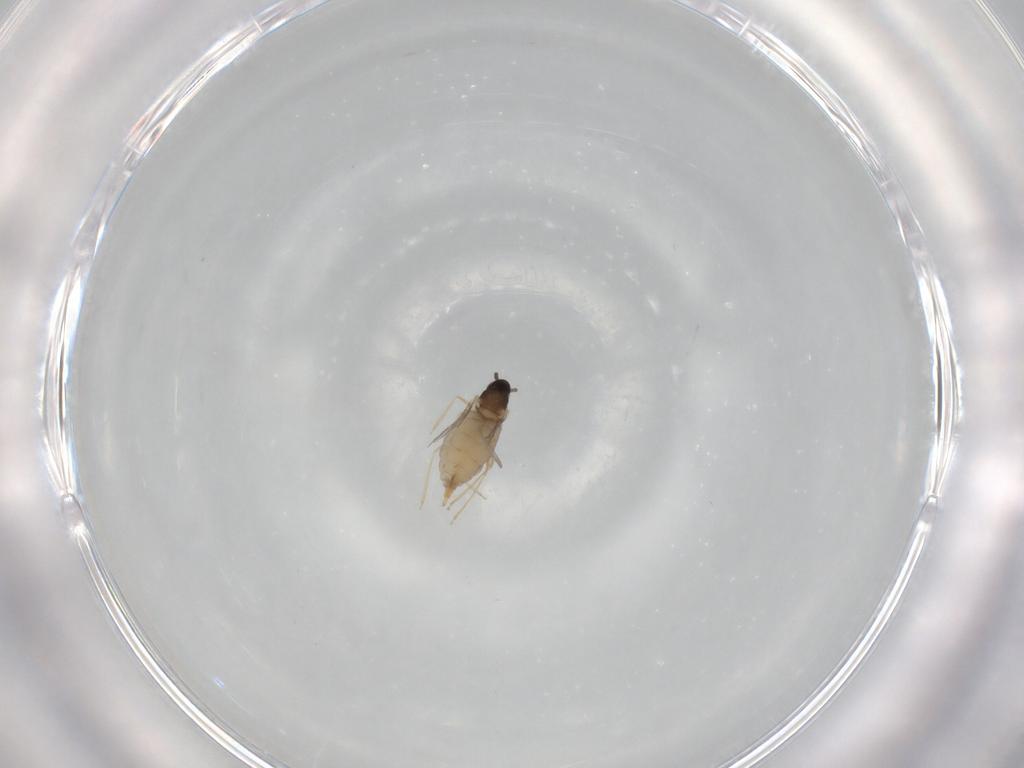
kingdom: Animalia
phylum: Arthropoda
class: Insecta
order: Diptera
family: Cecidomyiidae
